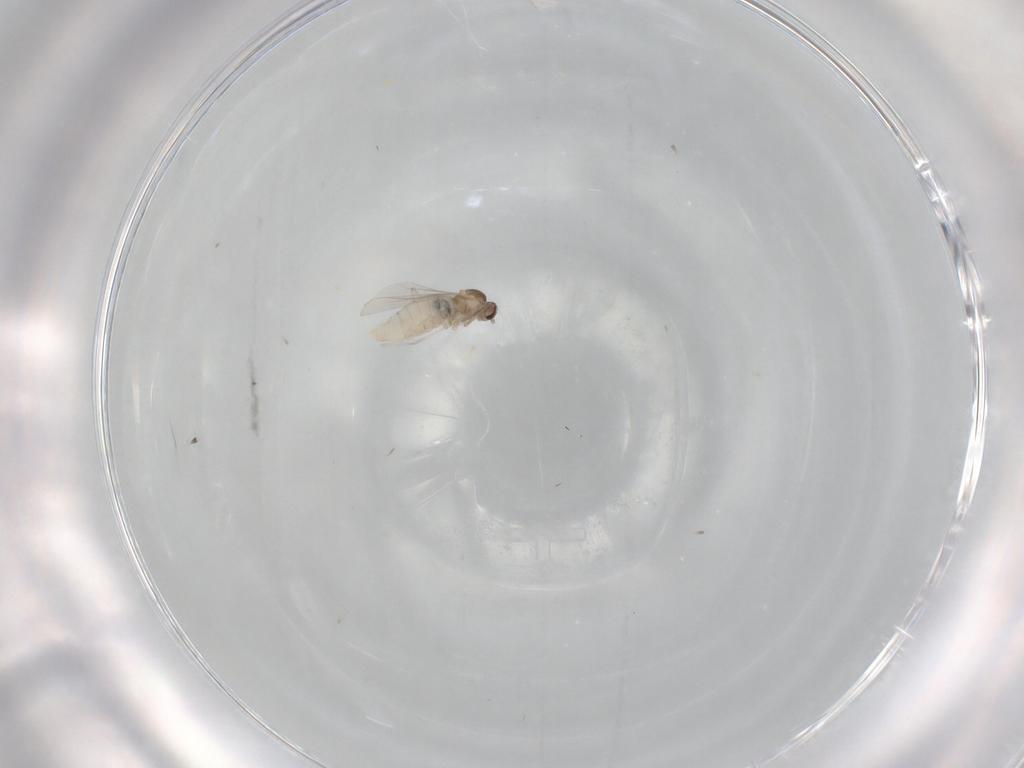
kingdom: Animalia
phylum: Arthropoda
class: Insecta
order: Diptera
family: Cecidomyiidae
